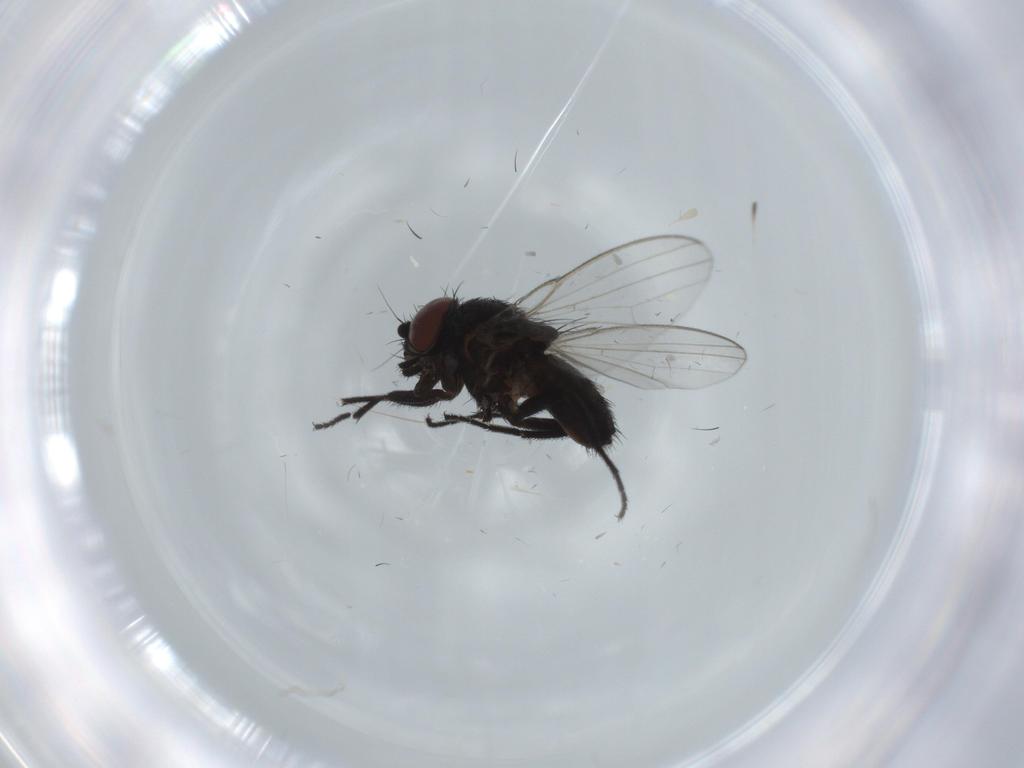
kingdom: Animalia
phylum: Arthropoda
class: Insecta
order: Diptera
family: Milichiidae
